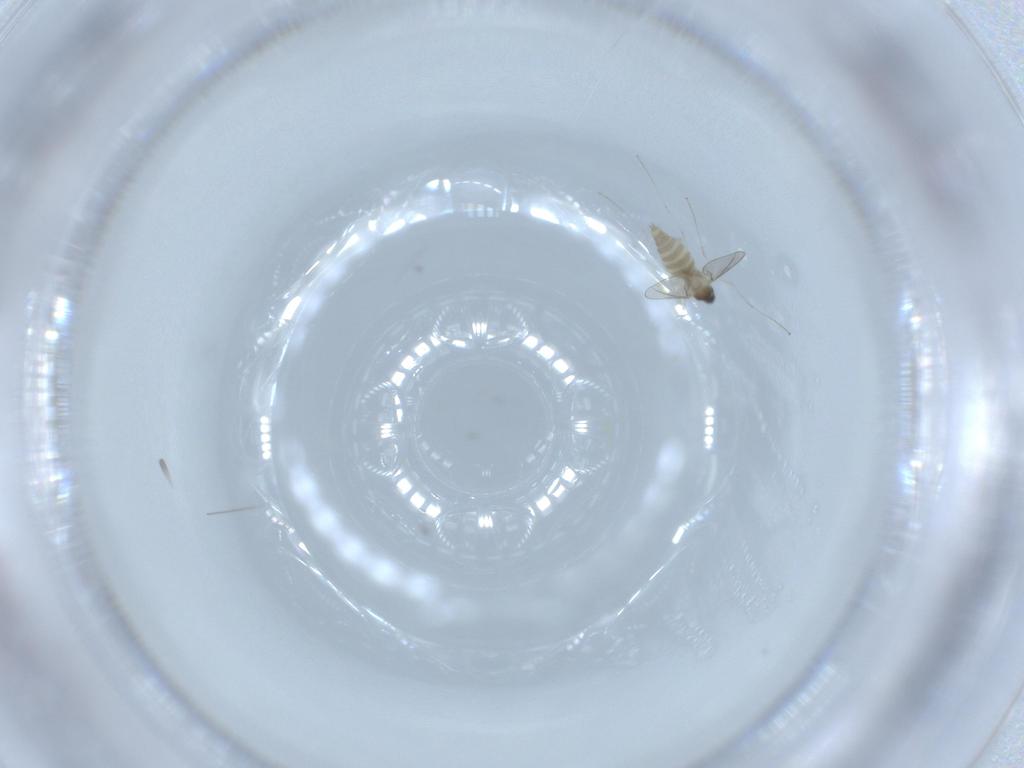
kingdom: Animalia
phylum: Arthropoda
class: Insecta
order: Diptera
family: Cecidomyiidae
